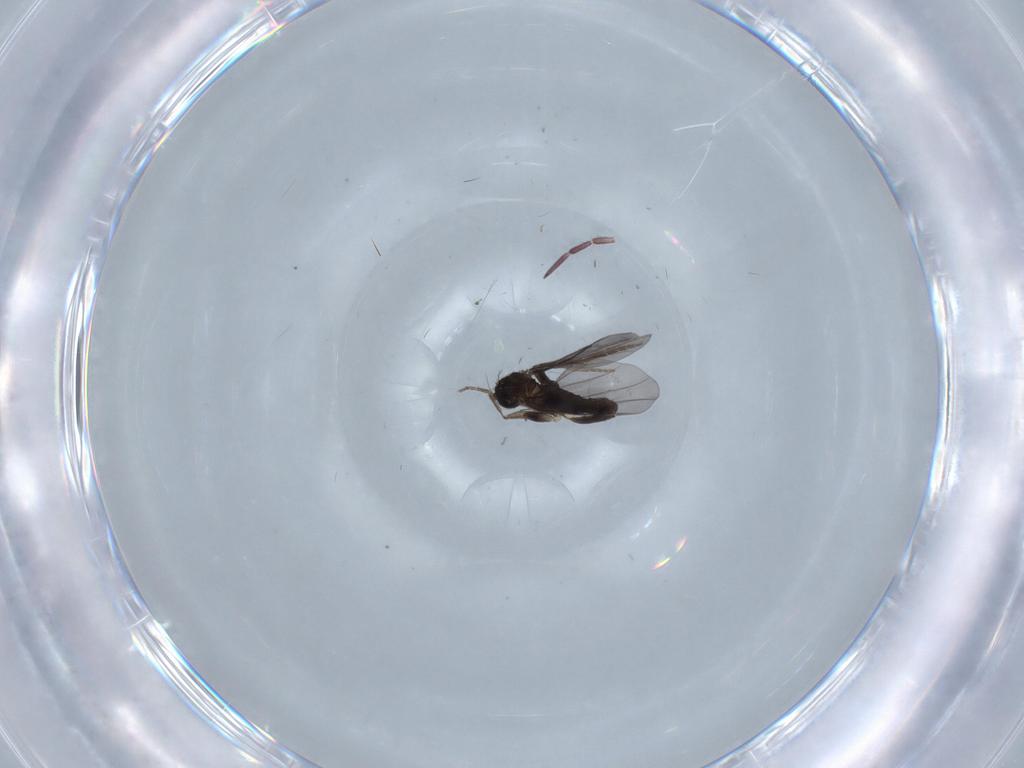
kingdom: Animalia
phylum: Arthropoda
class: Insecta
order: Diptera
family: Chironomidae
